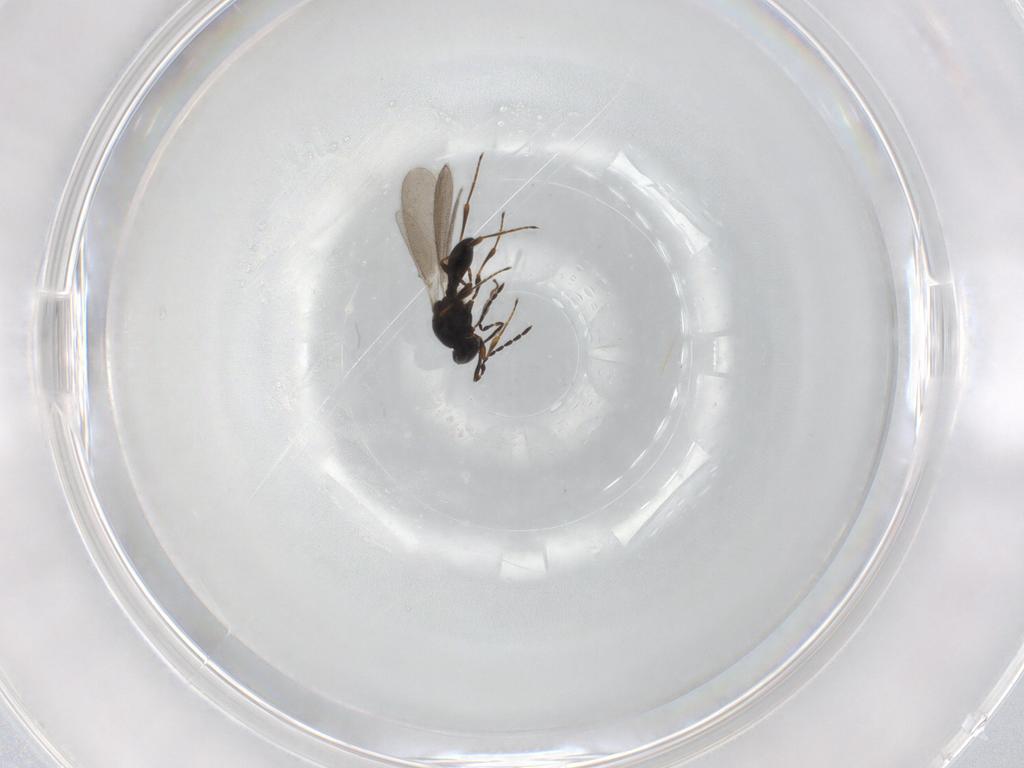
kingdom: Animalia
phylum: Arthropoda
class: Insecta
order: Hymenoptera
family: Platygastridae
